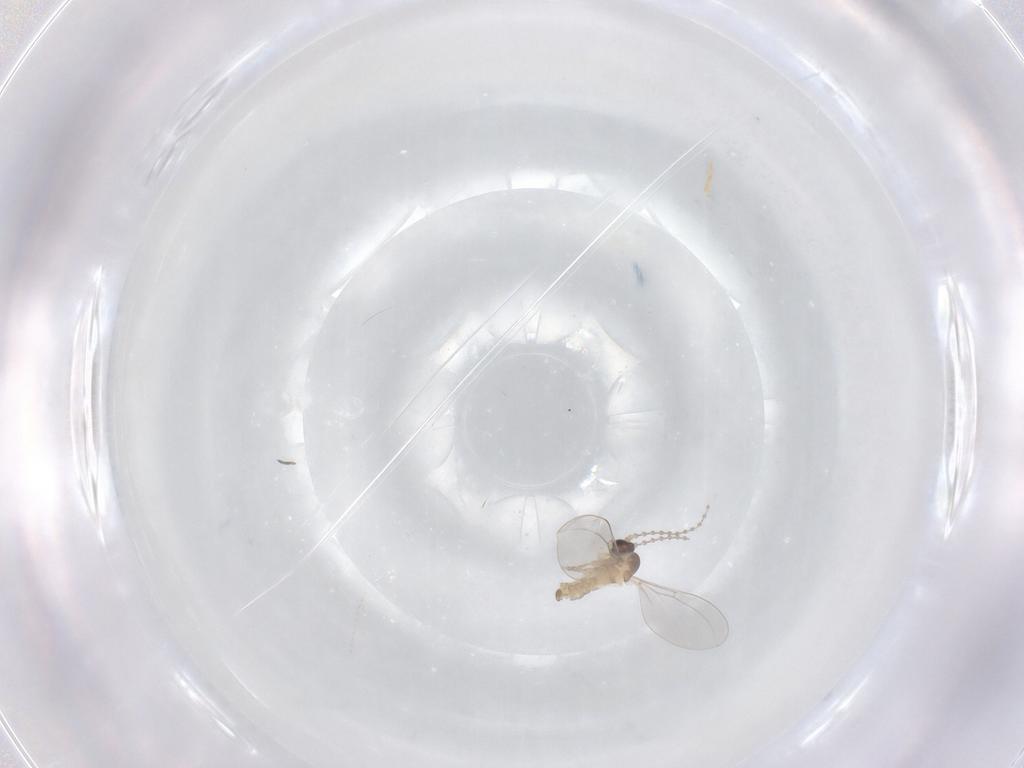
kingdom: Animalia
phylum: Arthropoda
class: Insecta
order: Diptera
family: Cecidomyiidae
